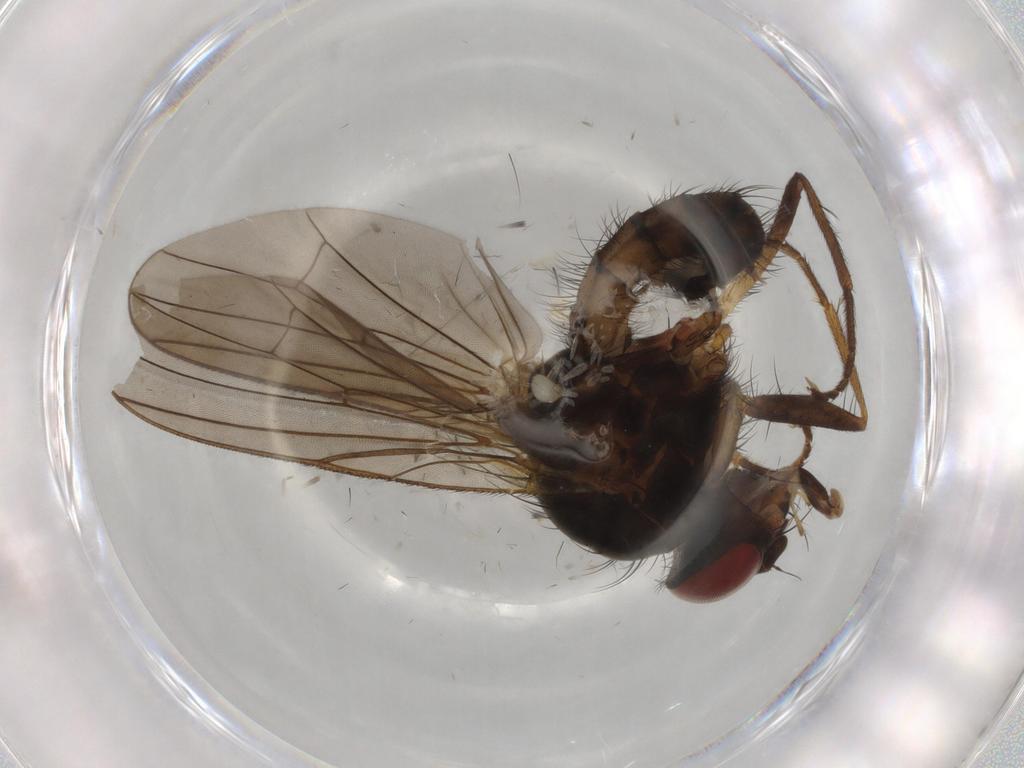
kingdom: Animalia
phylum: Arthropoda
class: Insecta
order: Diptera
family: Anthomyiidae
